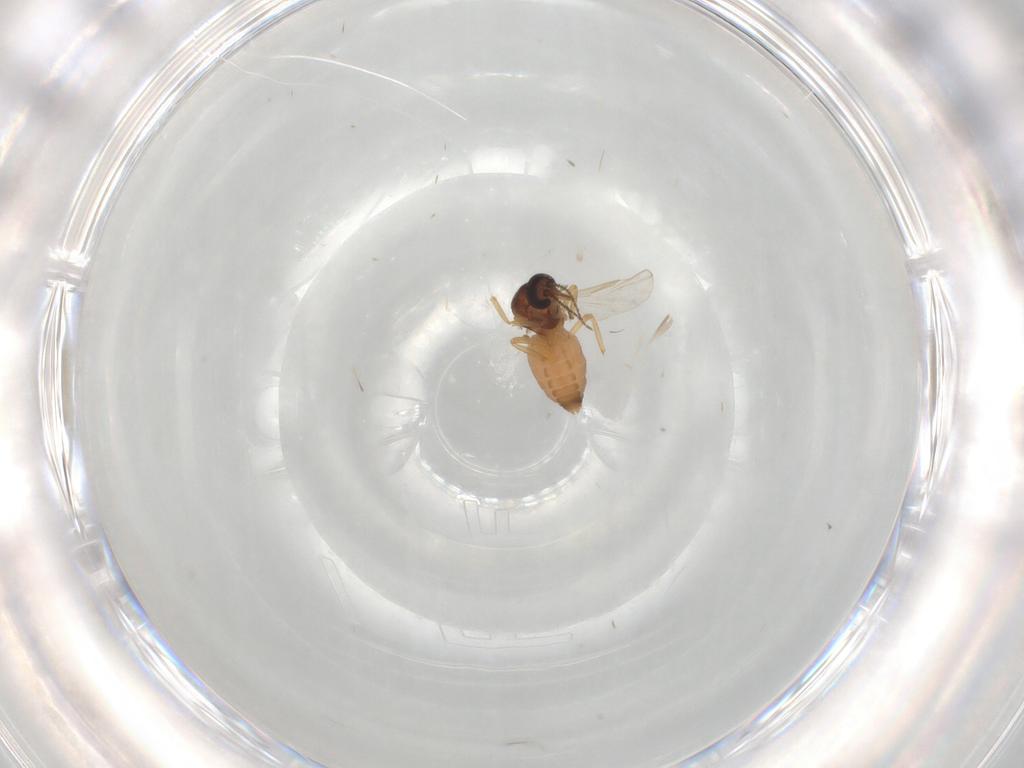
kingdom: Animalia
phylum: Arthropoda
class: Insecta
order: Diptera
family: Ceratopogonidae
